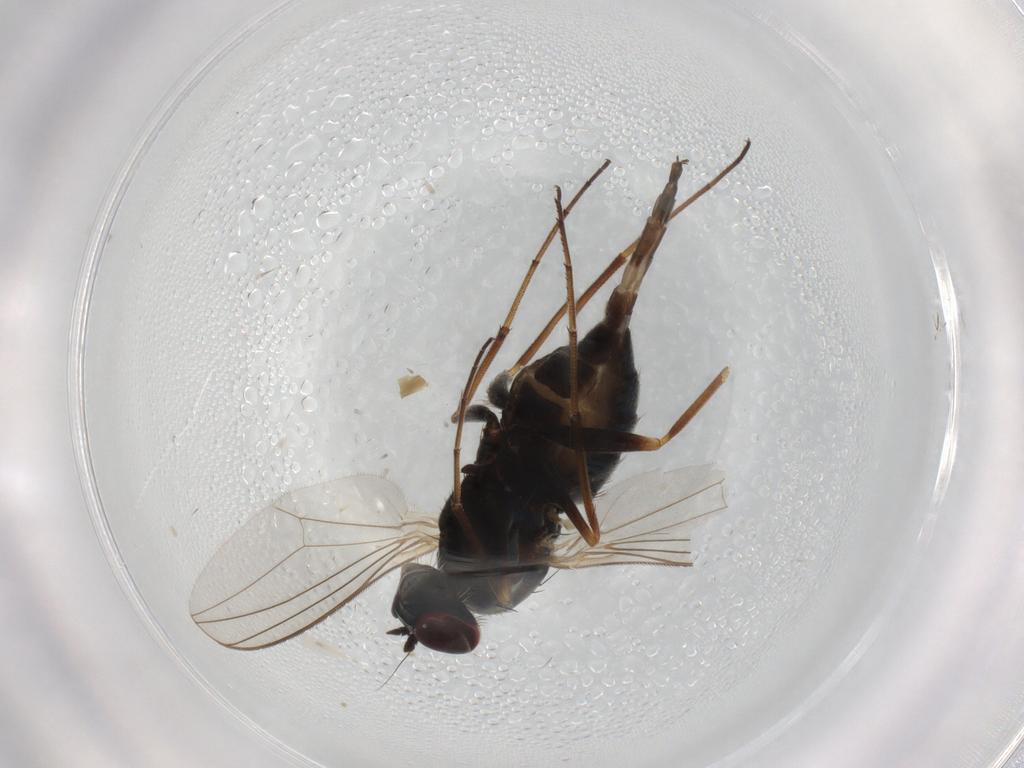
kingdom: Animalia
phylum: Arthropoda
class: Insecta
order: Diptera
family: Dolichopodidae
